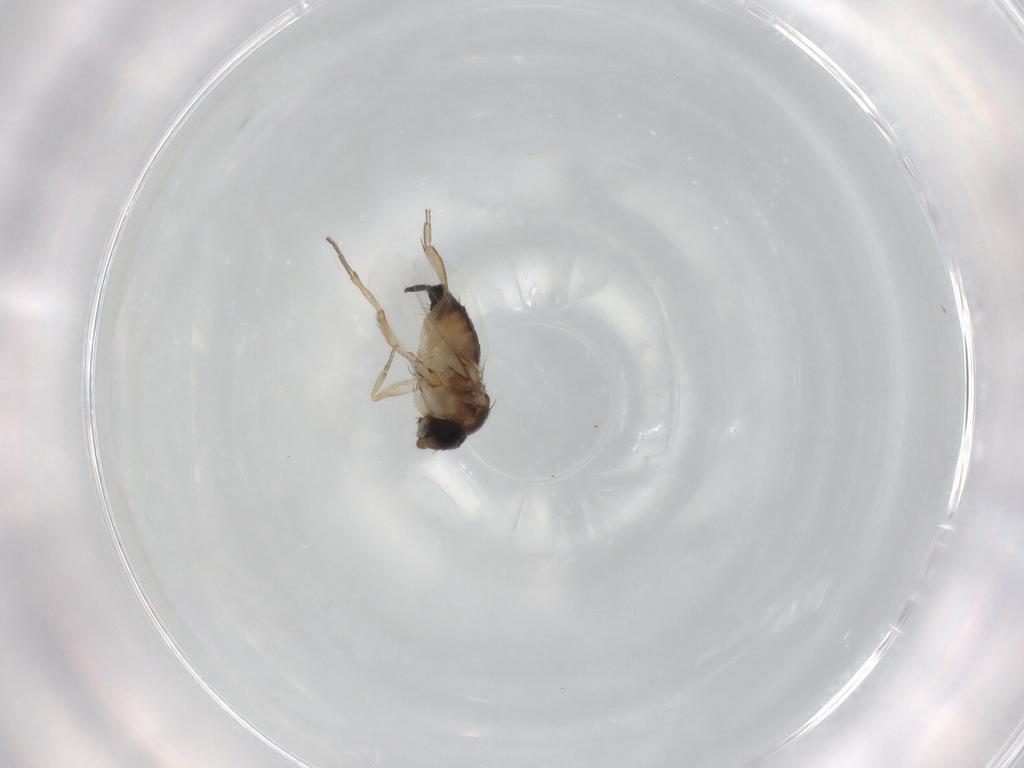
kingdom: Animalia
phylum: Arthropoda
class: Insecta
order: Diptera
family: Phoridae
